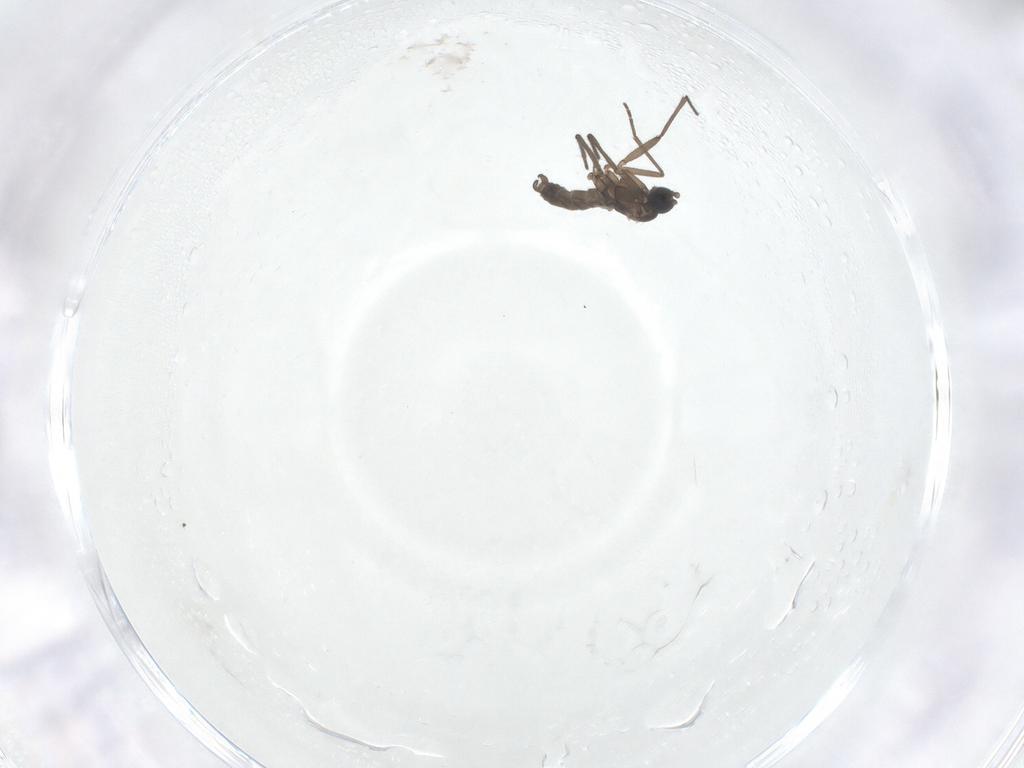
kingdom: Animalia
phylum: Arthropoda
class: Insecta
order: Diptera
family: Sciaridae
